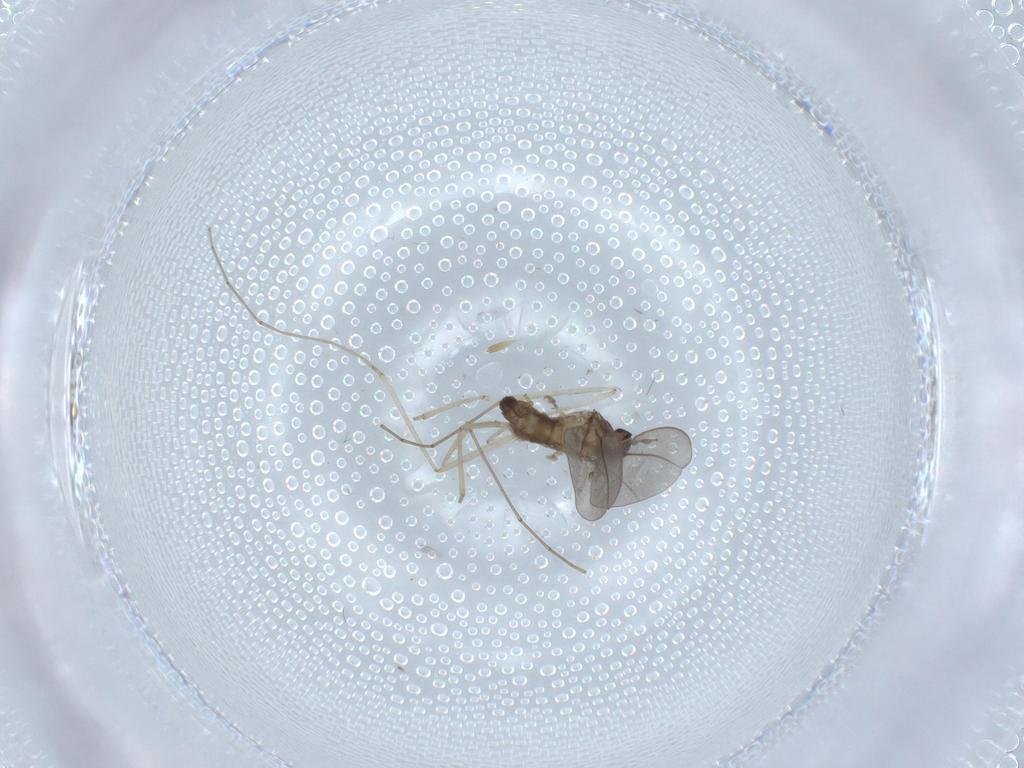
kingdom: Animalia
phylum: Arthropoda
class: Insecta
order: Diptera
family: Cecidomyiidae
